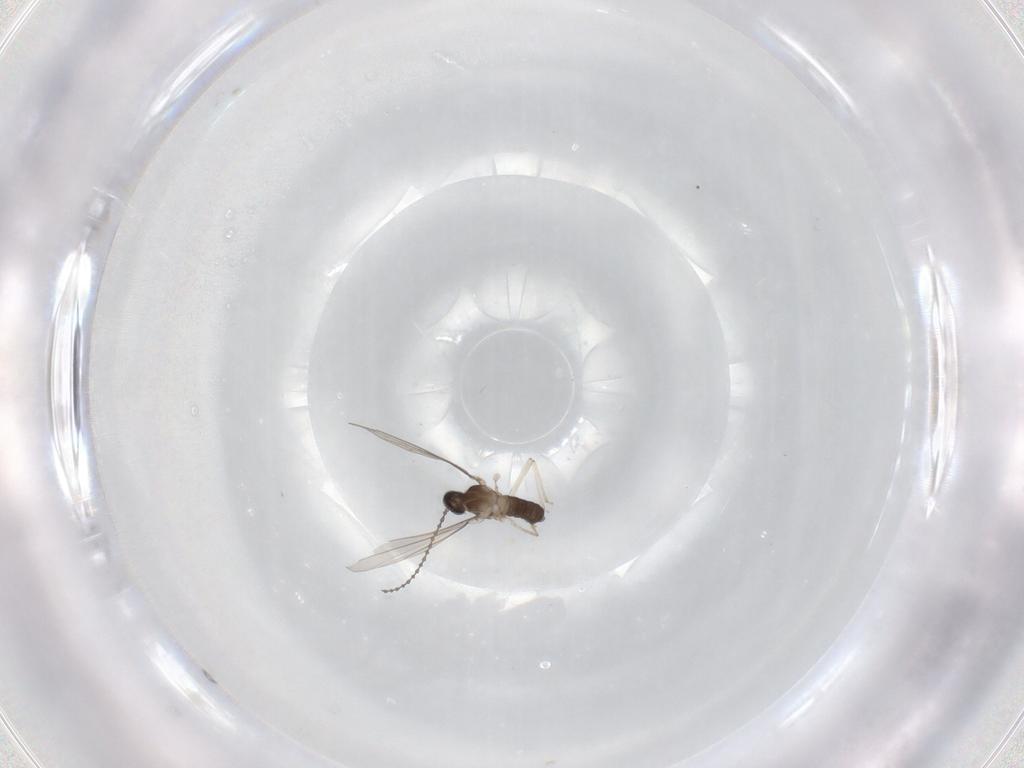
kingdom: Animalia
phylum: Arthropoda
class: Insecta
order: Diptera
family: Cecidomyiidae
